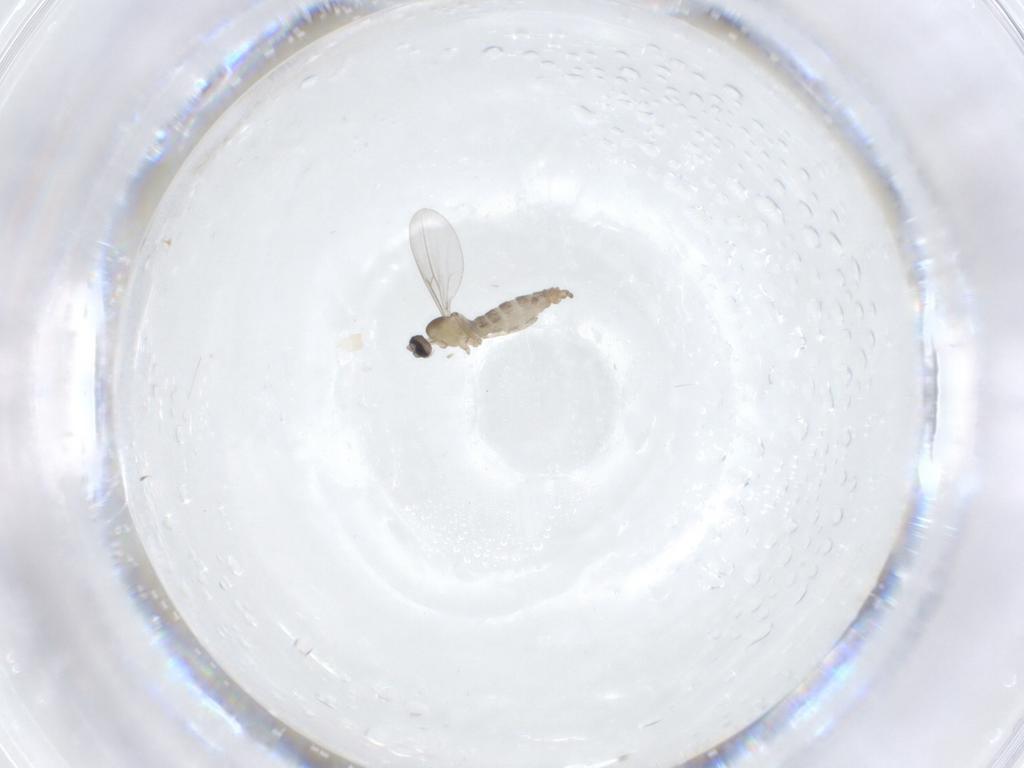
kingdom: Animalia
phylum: Arthropoda
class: Insecta
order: Diptera
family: Cecidomyiidae
